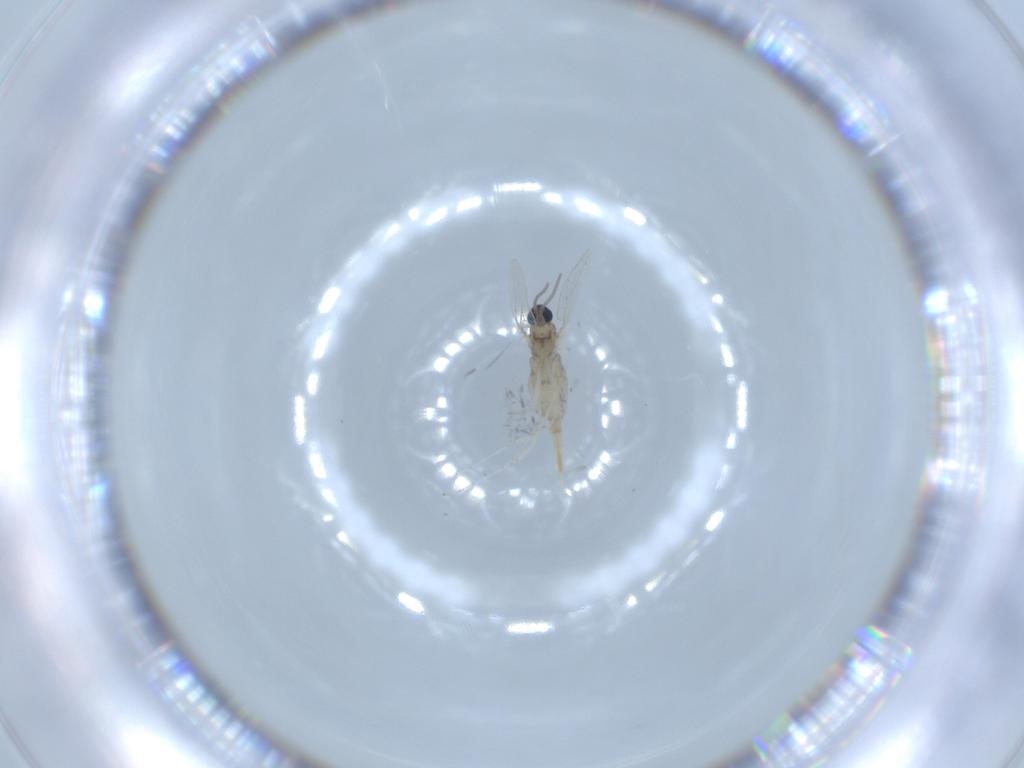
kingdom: Animalia
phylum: Arthropoda
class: Insecta
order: Diptera
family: Cecidomyiidae
